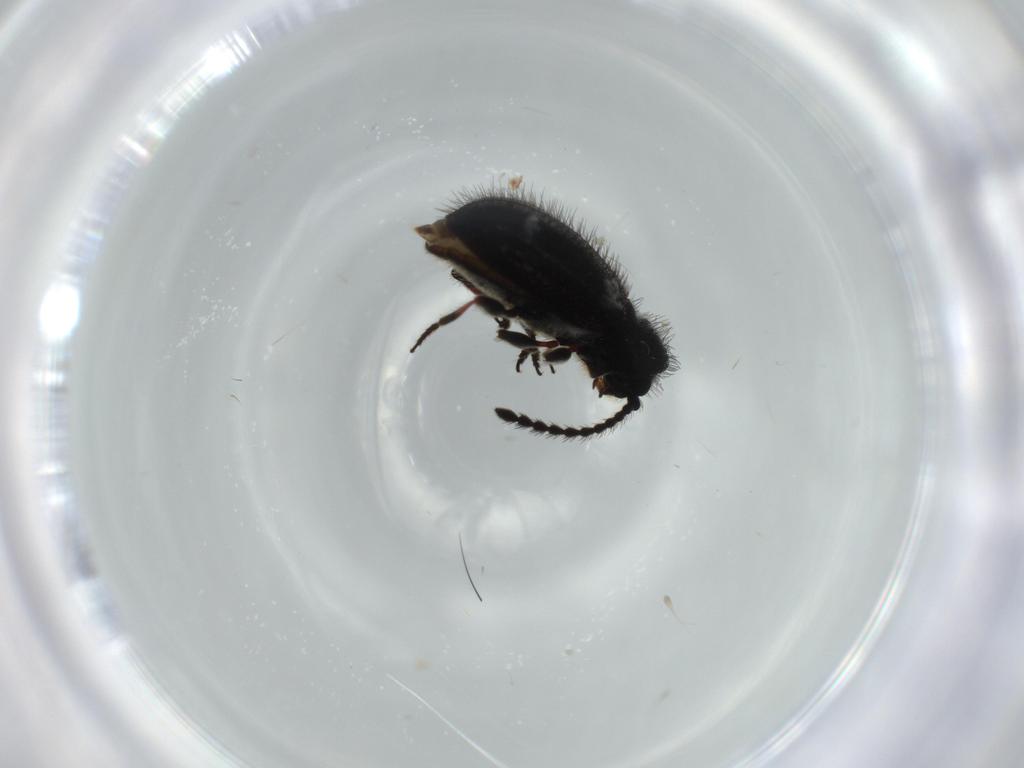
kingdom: Animalia
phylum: Arthropoda
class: Insecta
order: Coleoptera
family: Ptinidae
